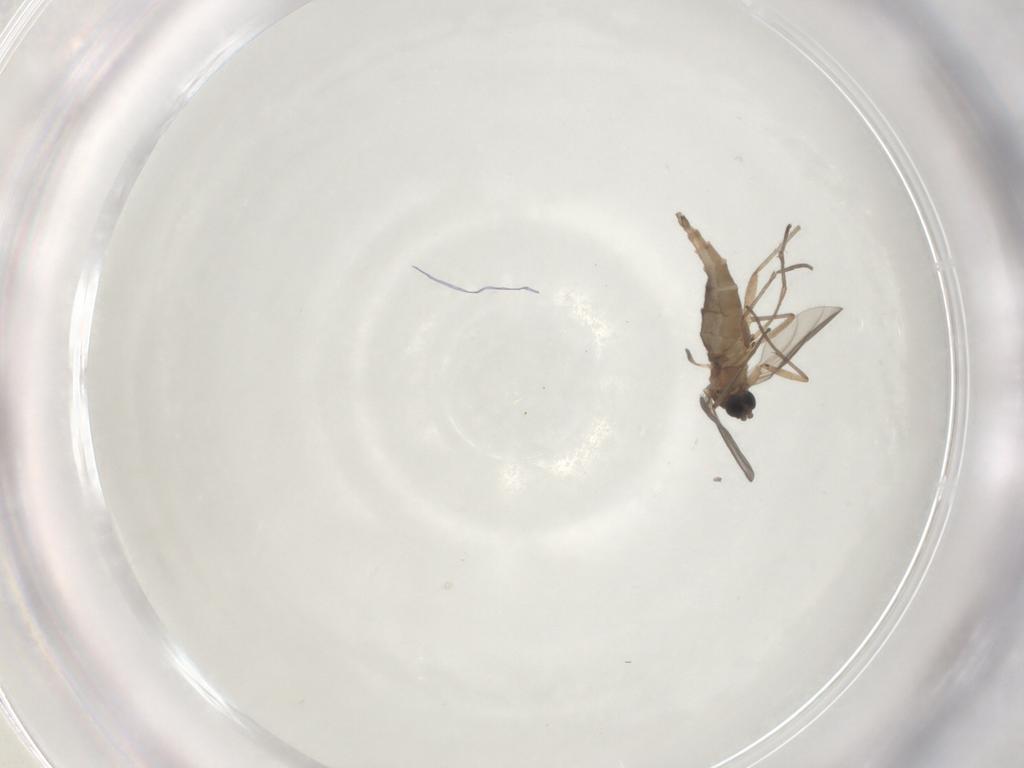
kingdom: Animalia
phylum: Arthropoda
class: Insecta
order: Diptera
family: Sciaridae
